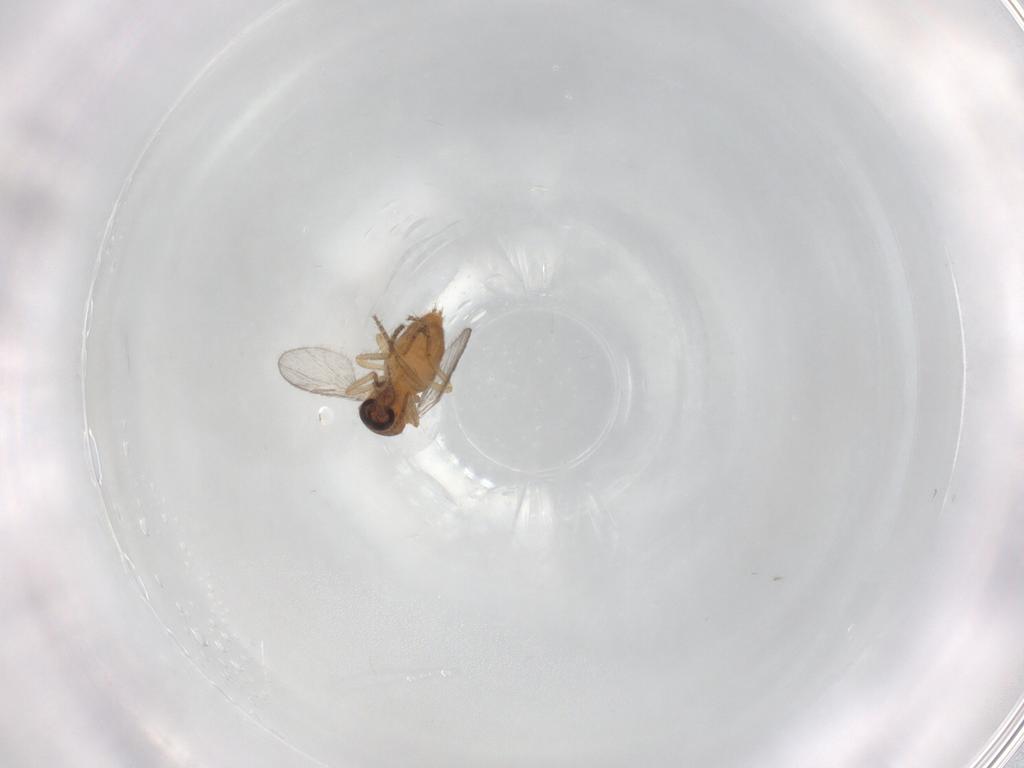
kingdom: Animalia
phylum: Arthropoda
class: Insecta
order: Diptera
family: Ceratopogonidae
